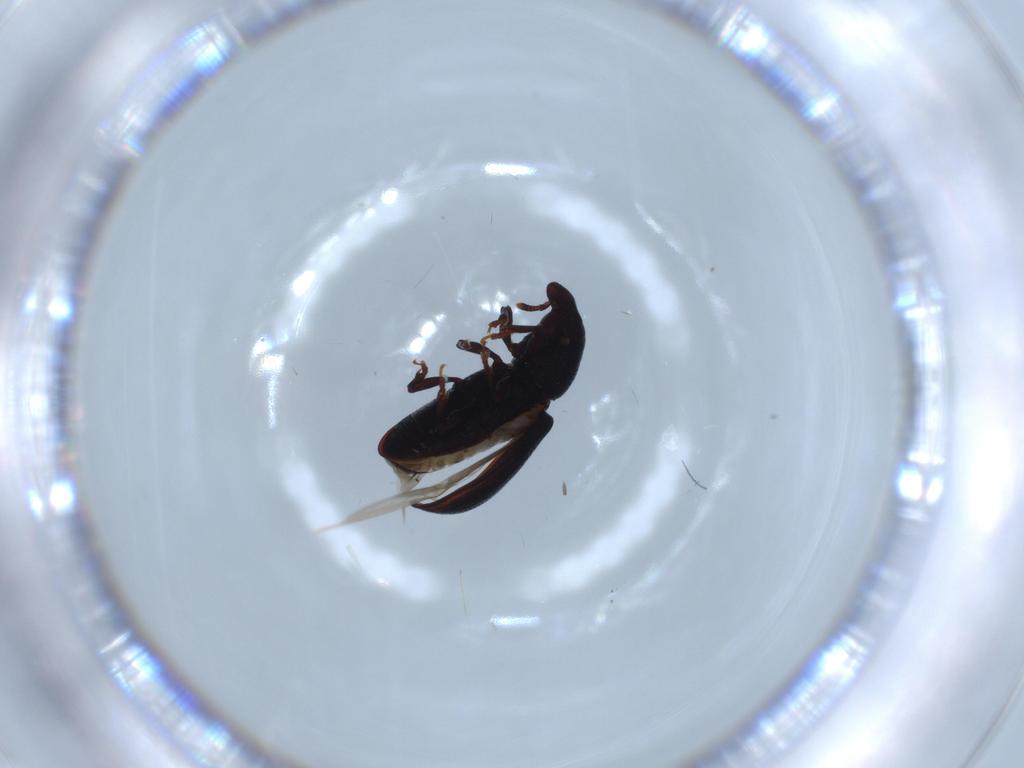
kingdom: Animalia
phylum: Arthropoda
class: Insecta
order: Coleoptera
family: Curculionidae
